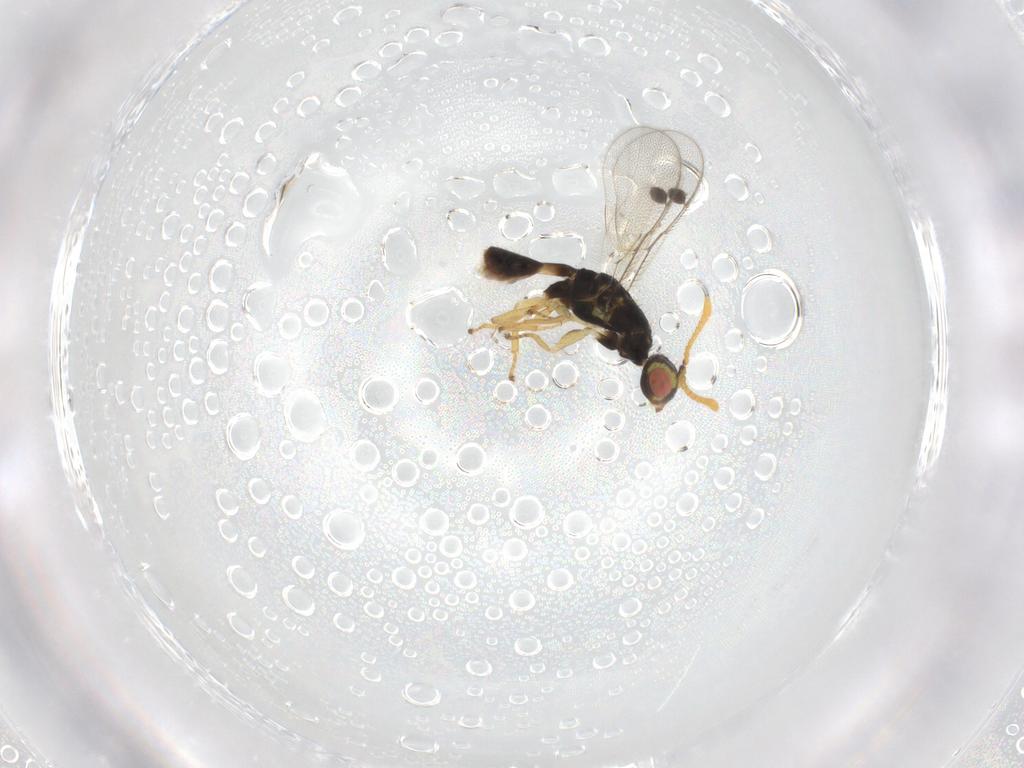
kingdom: Animalia
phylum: Arthropoda
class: Insecta
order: Hymenoptera
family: Megastigmidae
